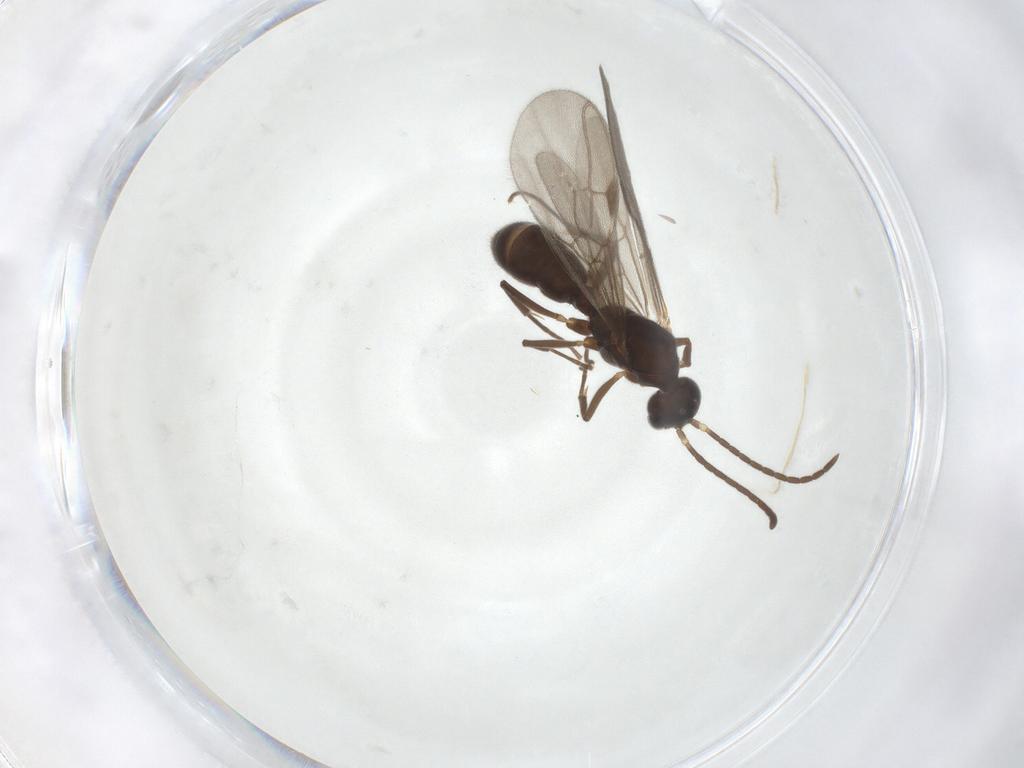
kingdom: Animalia
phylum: Arthropoda
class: Insecta
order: Hymenoptera
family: Formicidae
